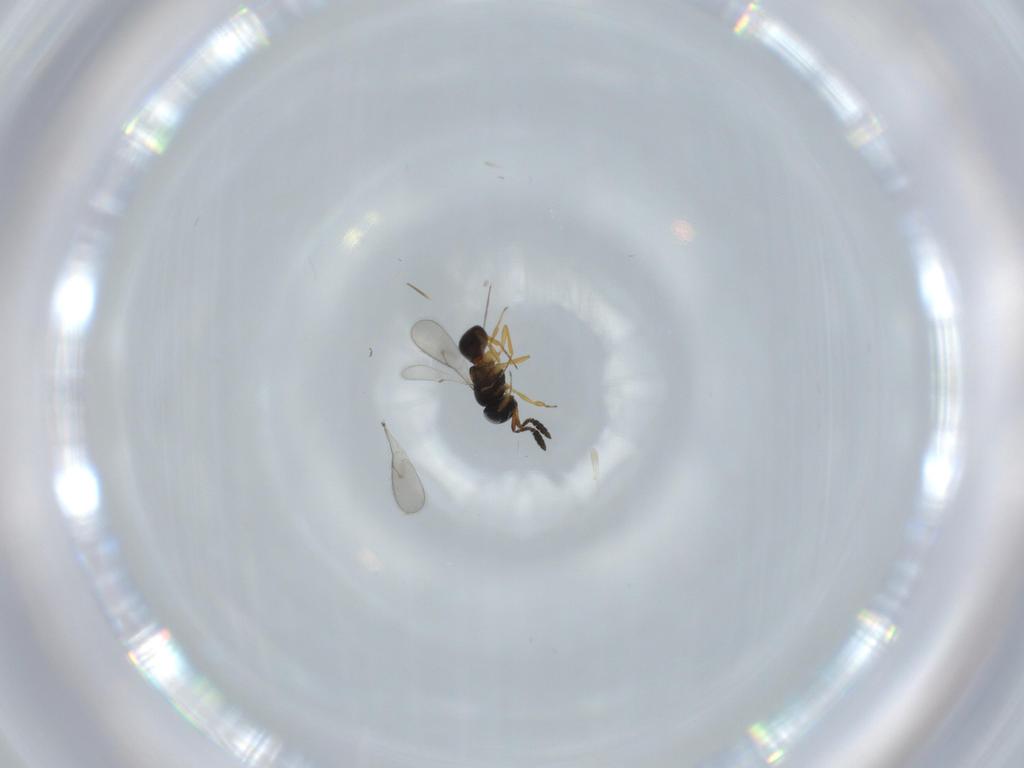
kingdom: Animalia
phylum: Arthropoda
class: Insecta
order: Hymenoptera
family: Scelionidae
